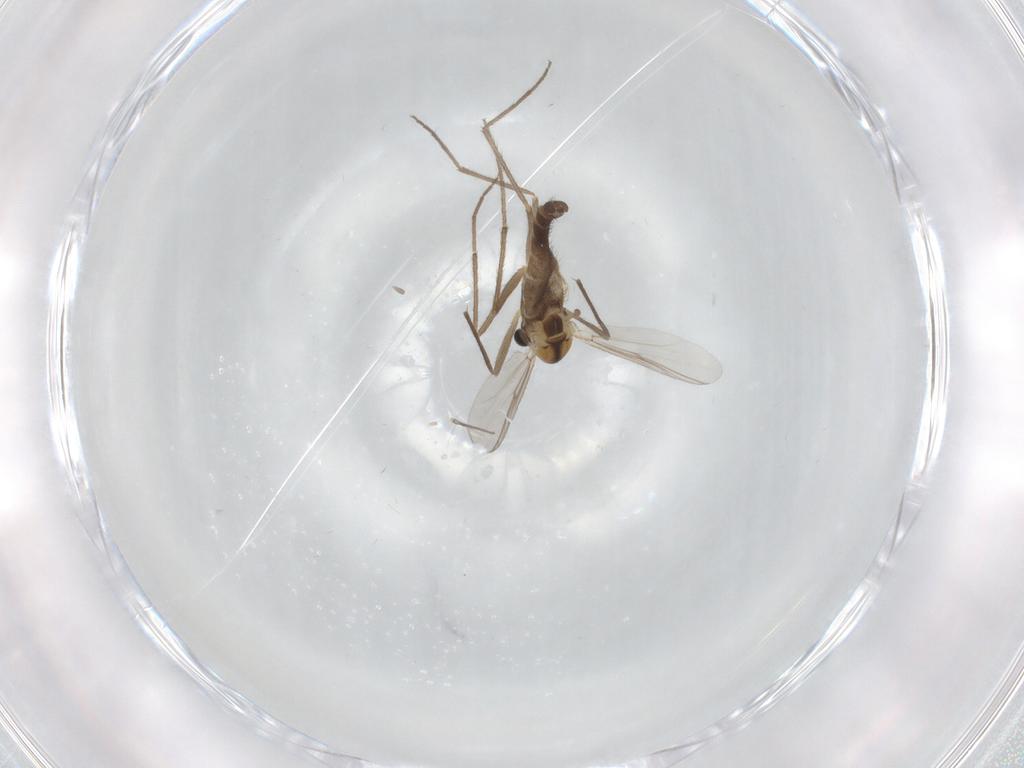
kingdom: Animalia
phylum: Arthropoda
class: Insecta
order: Diptera
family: Chironomidae
